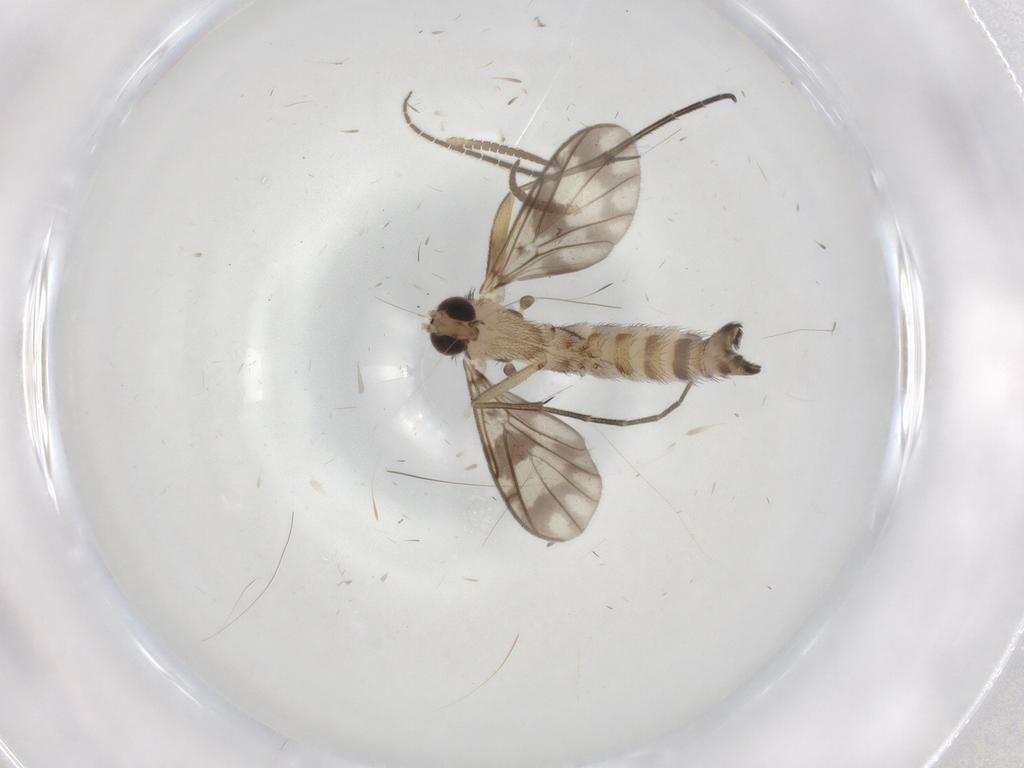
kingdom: Animalia
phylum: Arthropoda
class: Insecta
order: Diptera
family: Keroplatidae
